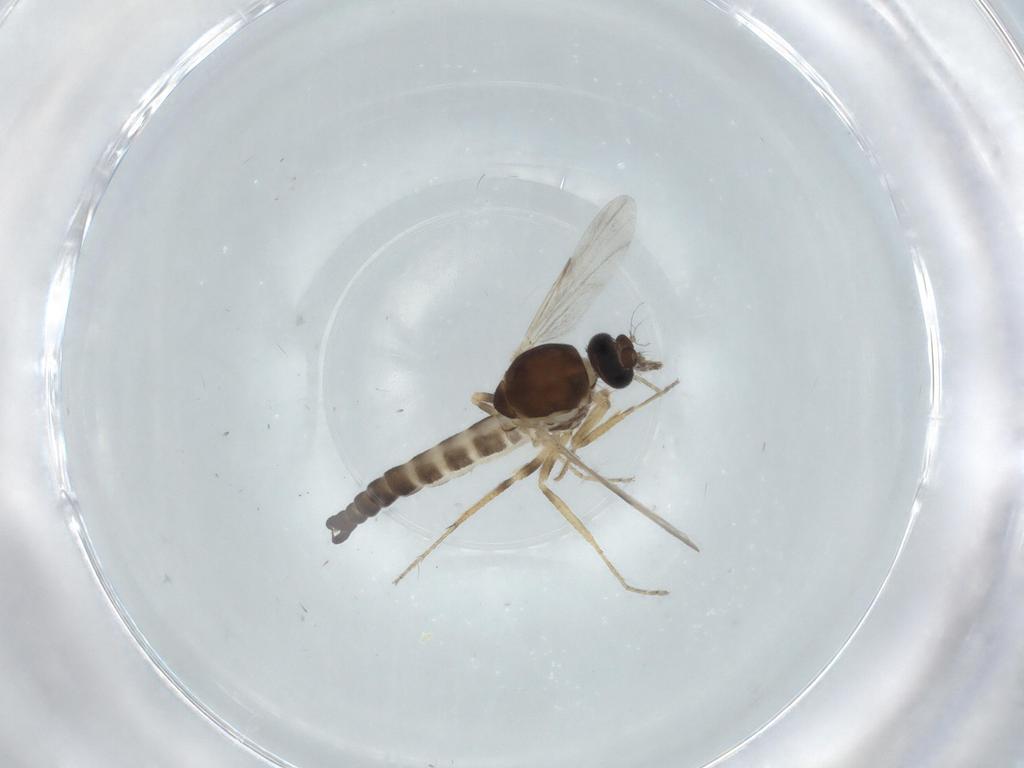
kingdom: Animalia
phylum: Arthropoda
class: Insecta
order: Diptera
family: Ceratopogonidae
